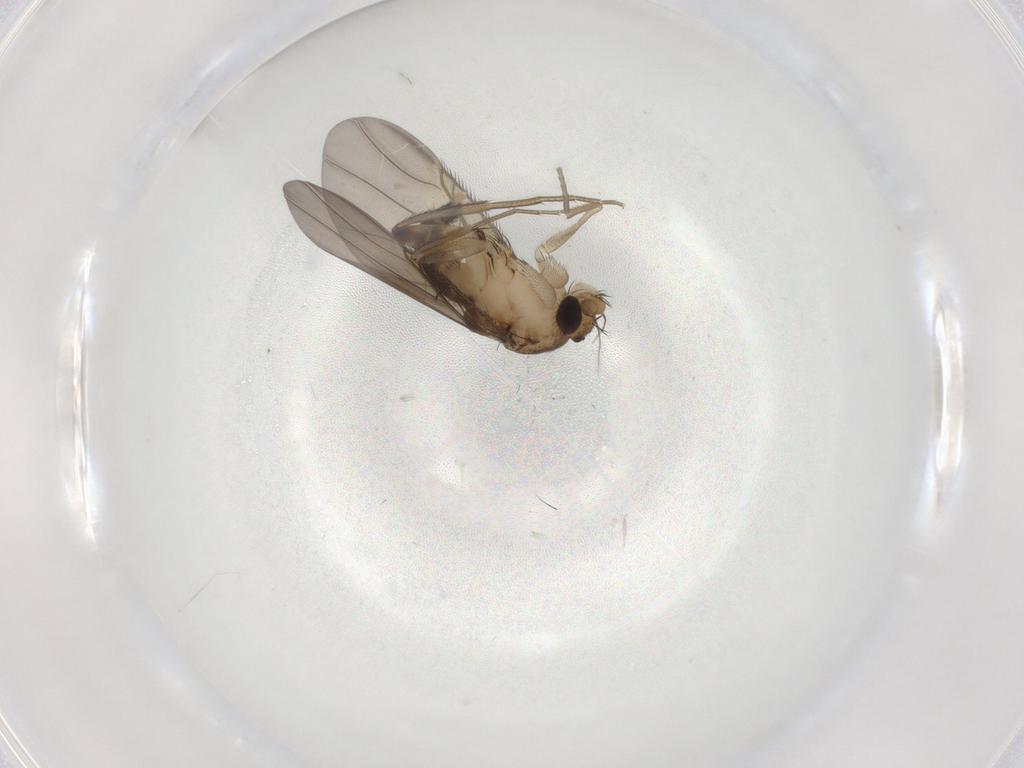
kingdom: Animalia
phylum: Arthropoda
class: Insecta
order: Diptera
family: Phoridae
